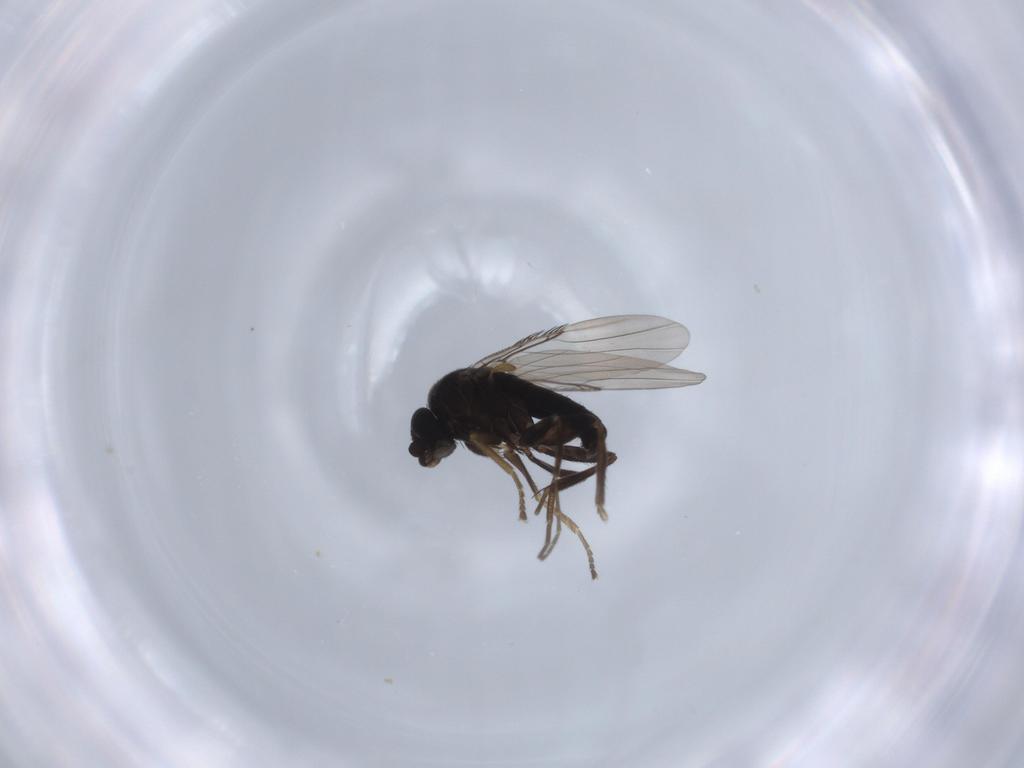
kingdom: Animalia
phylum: Arthropoda
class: Insecta
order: Diptera
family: Phoridae
